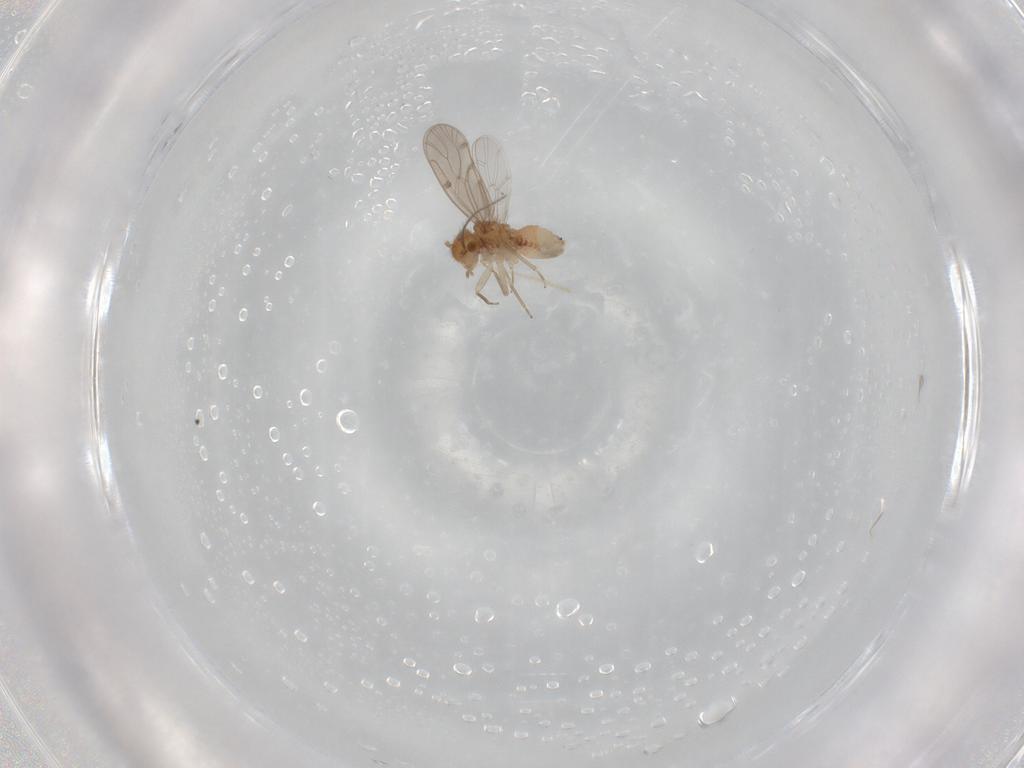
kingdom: Animalia
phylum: Arthropoda
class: Insecta
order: Psocodea
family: Ectopsocidae
